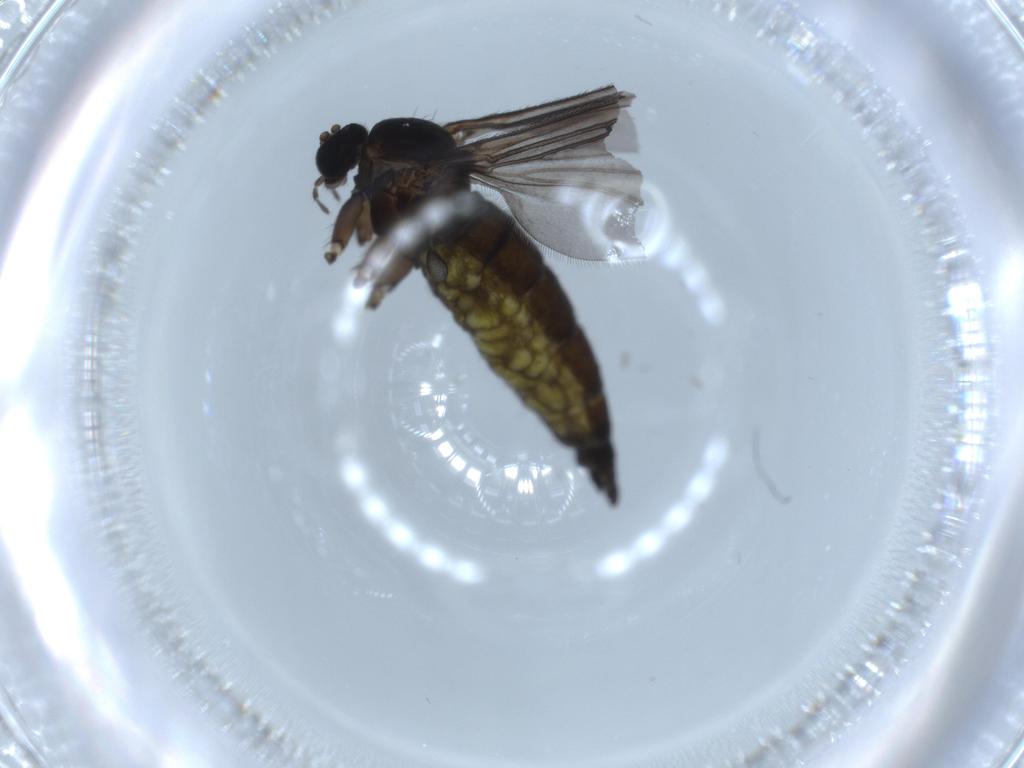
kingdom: Animalia
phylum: Arthropoda
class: Insecta
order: Diptera
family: Sciaridae
